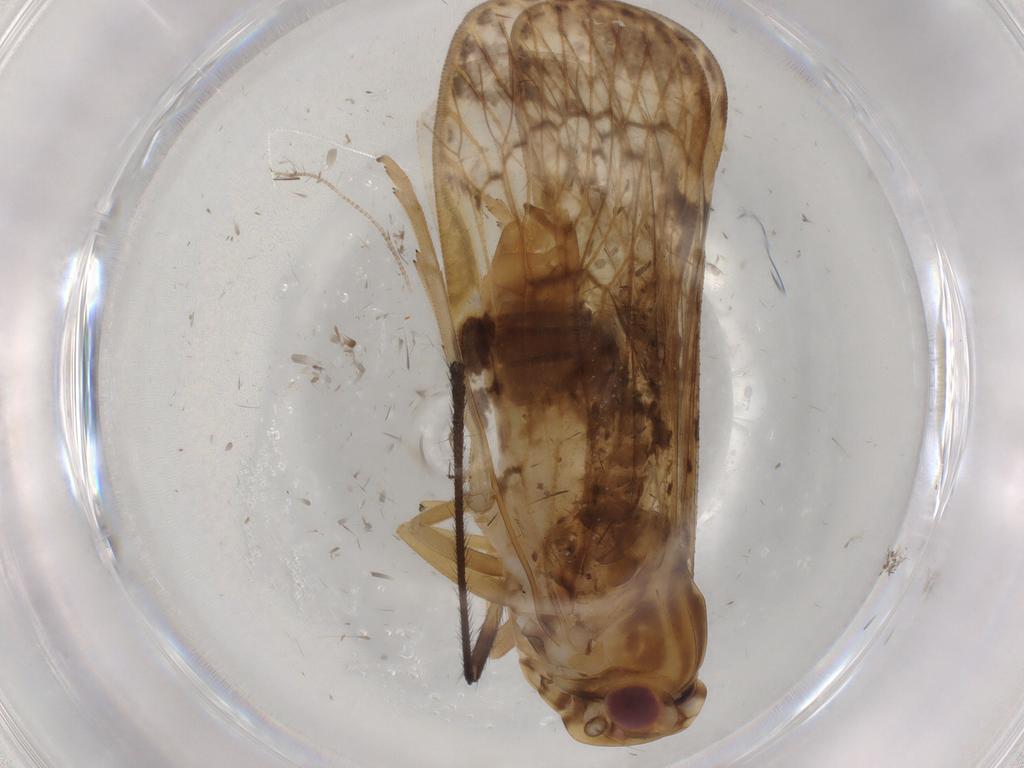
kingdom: Animalia
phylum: Arthropoda
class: Insecta
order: Hemiptera
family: Cixiidae
